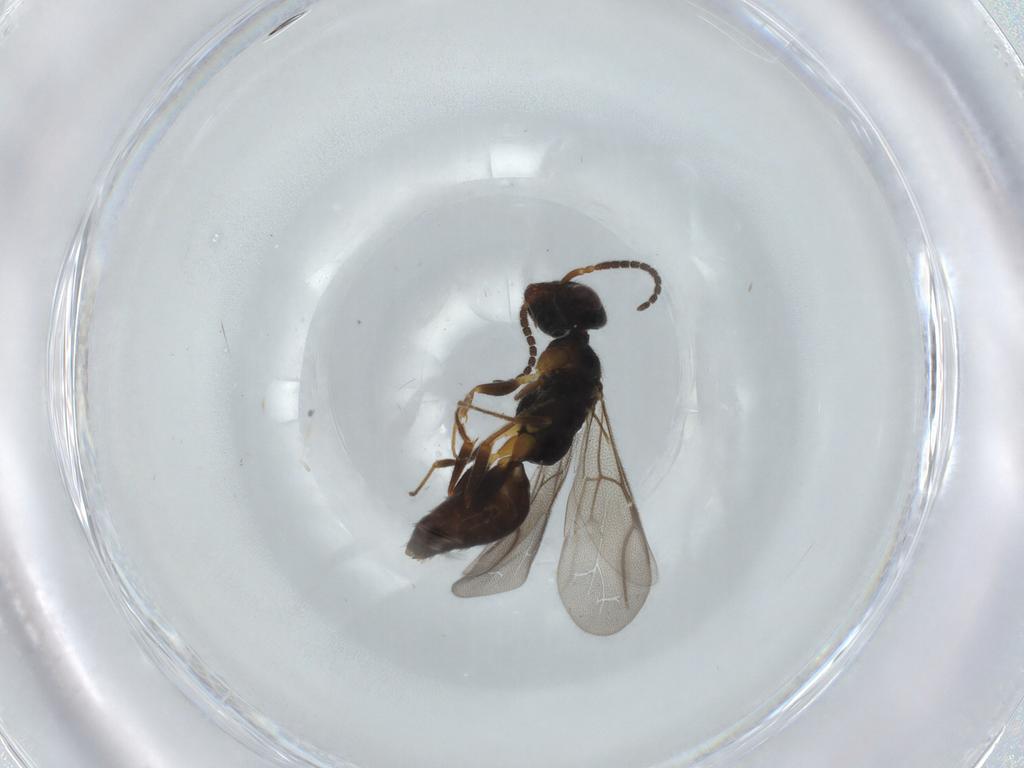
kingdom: Animalia
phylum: Arthropoda
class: Insecta
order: Hymenoptera
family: Bethylidae
